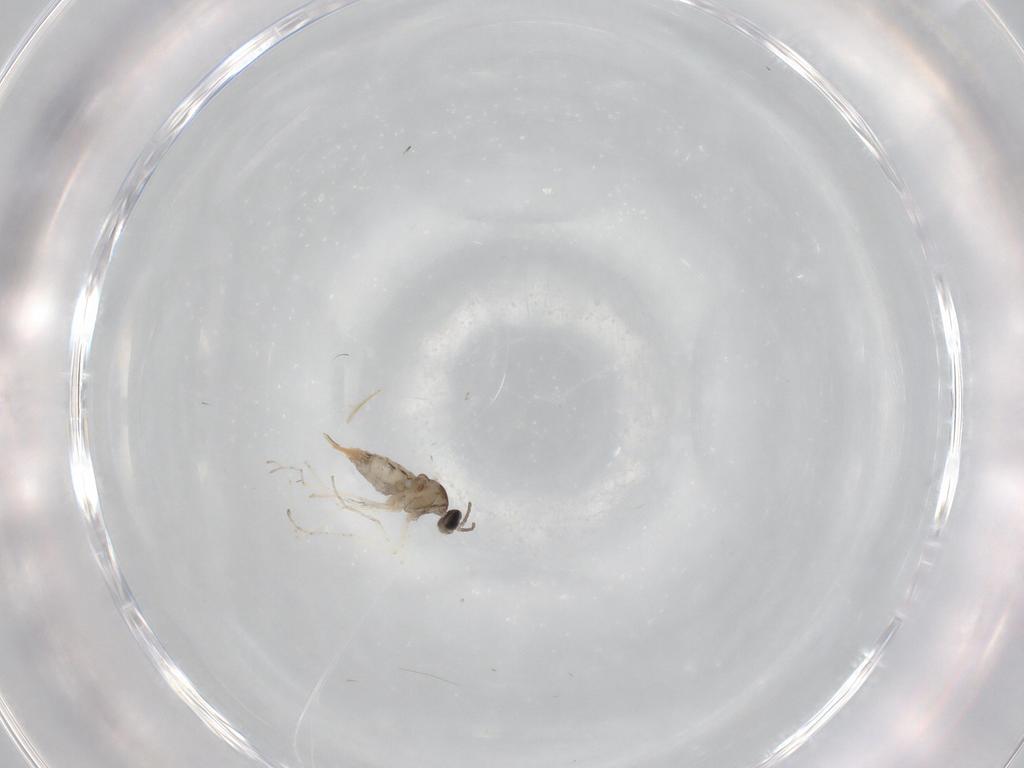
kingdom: Animalia
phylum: Arthropoda
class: Insecta
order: Diptera
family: Cecidomyiidae
